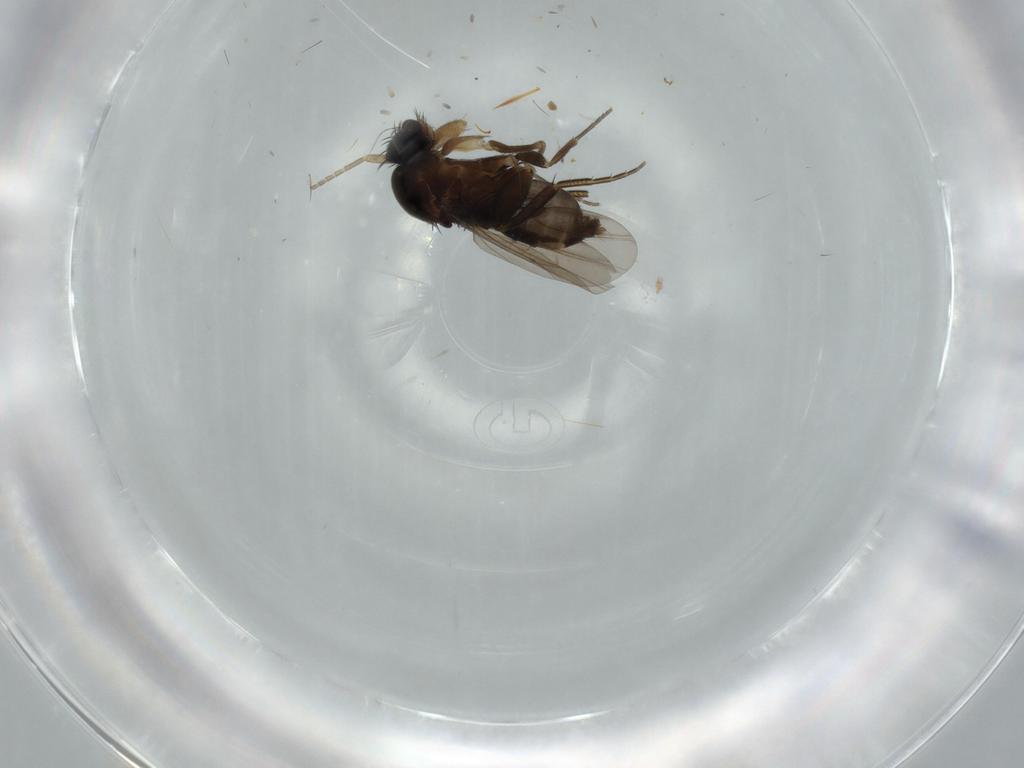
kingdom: Animalia
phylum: Arthropoda
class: Insecta
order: Diptera
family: Phoridae
